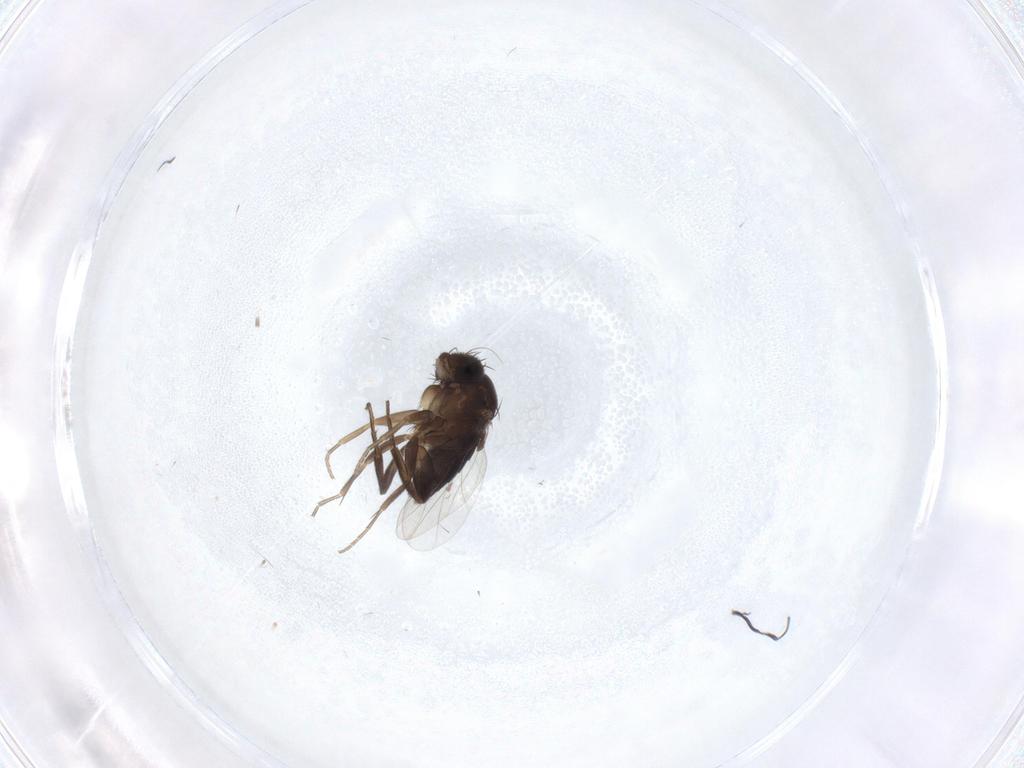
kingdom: Animalia
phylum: Arthropoda
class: Insecta
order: Diptera
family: Phoridae
